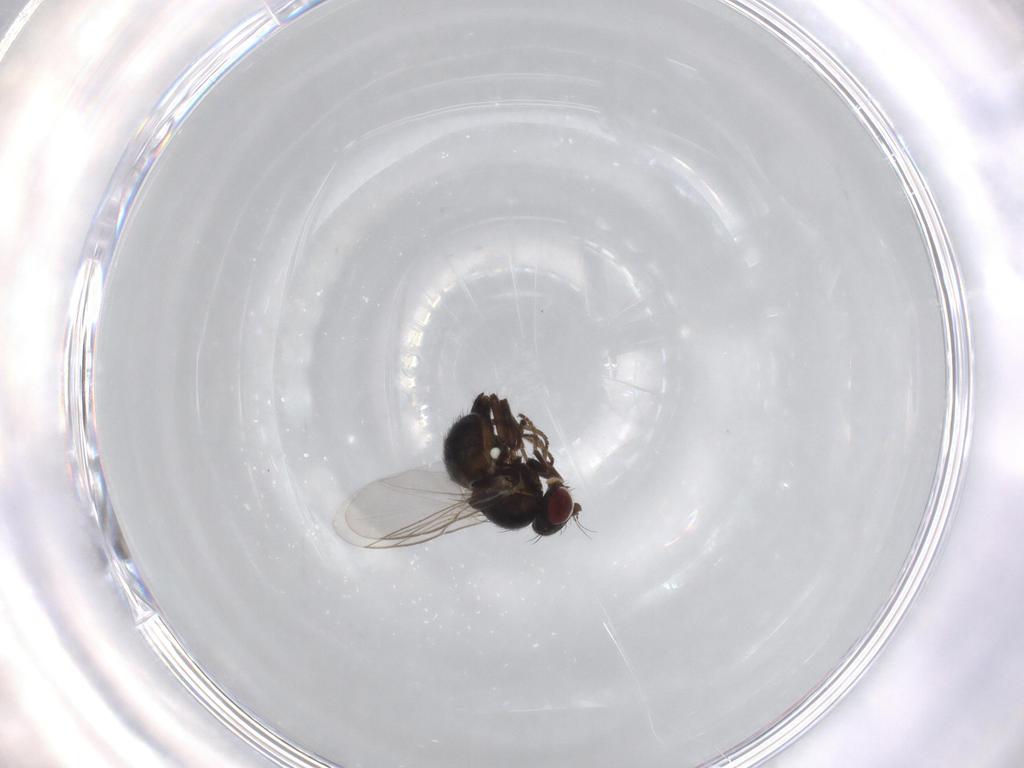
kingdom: Animalia
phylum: Arthropoda
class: Insecta
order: Diptera
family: Agromyzidae
